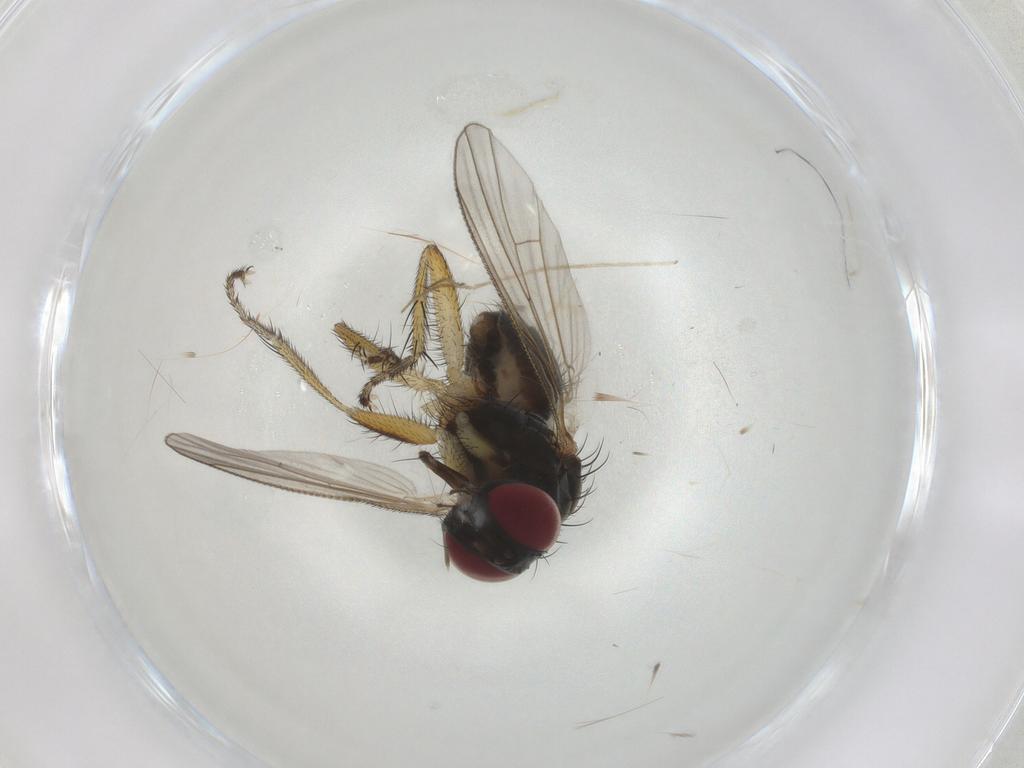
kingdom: Animalia
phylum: Arthropoda
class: Insecta
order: Diptera
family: Muscidae
